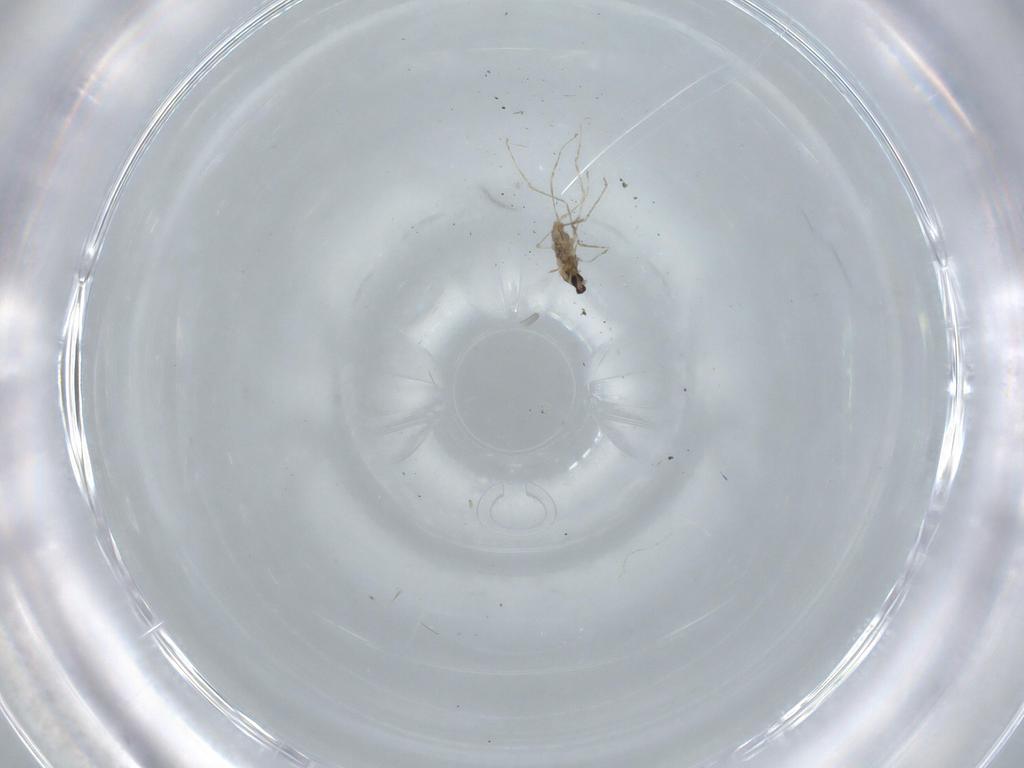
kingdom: Animalia
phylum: Arthropoda
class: Insecta
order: Diptera
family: Cecidomyiidae
